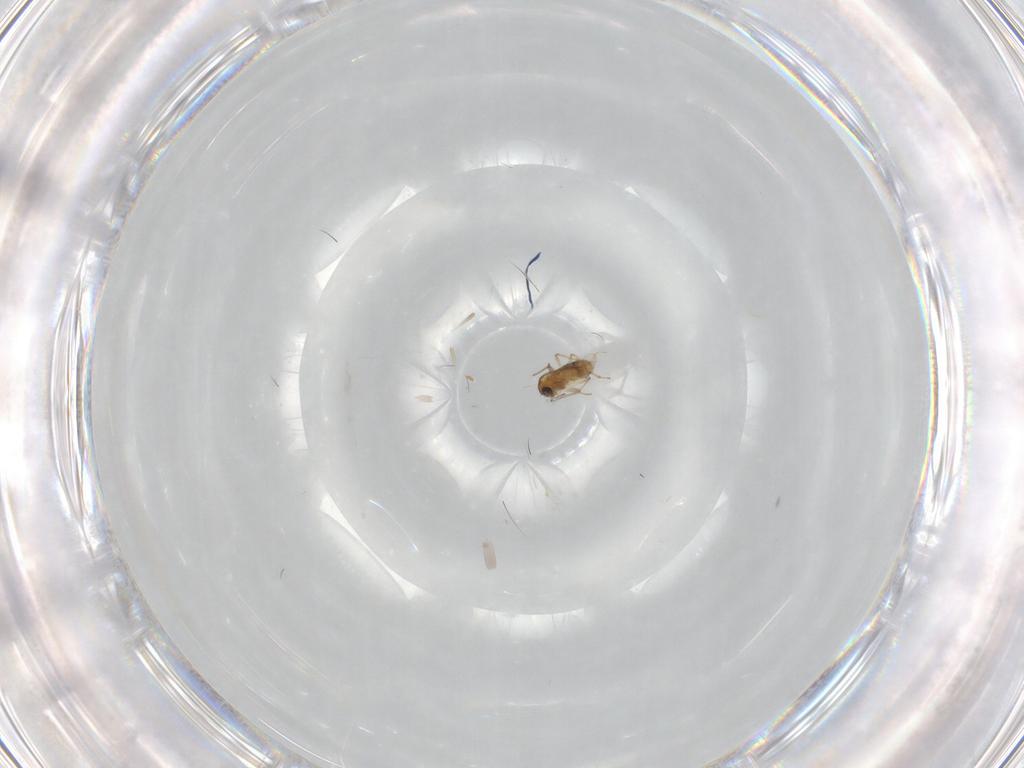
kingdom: Animalia
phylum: Arthropoda
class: Insecta
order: Diptera
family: Chironomidae
